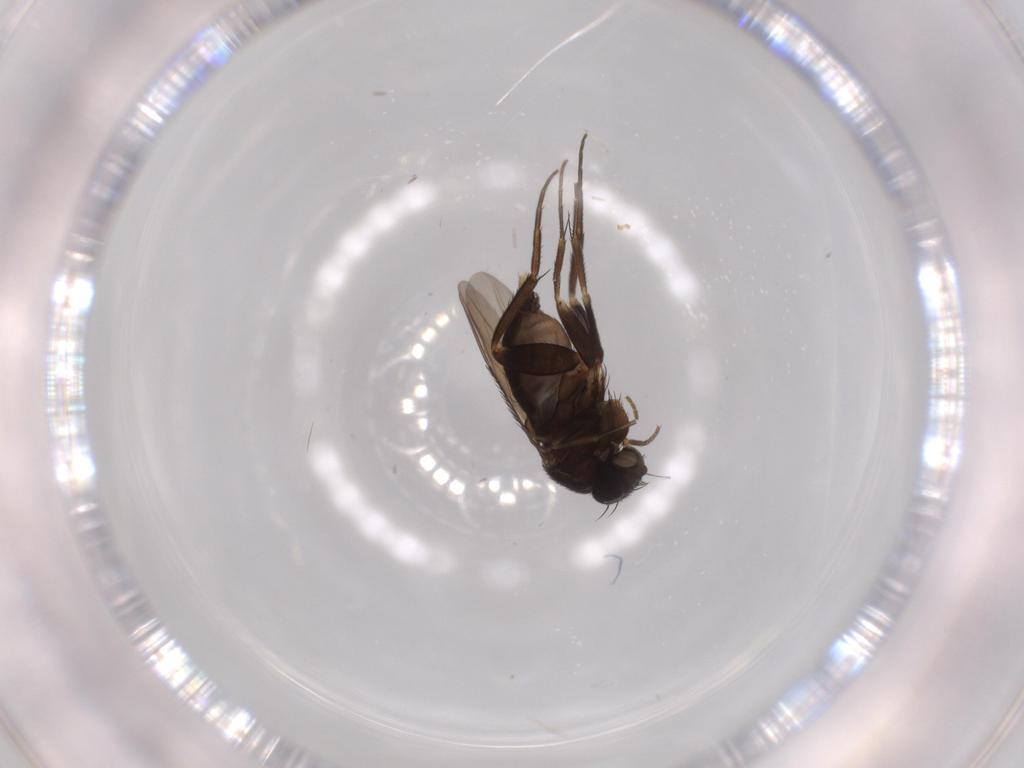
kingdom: Animalia
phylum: Arthropoda
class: Insecta
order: Diptera
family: Phoridae
